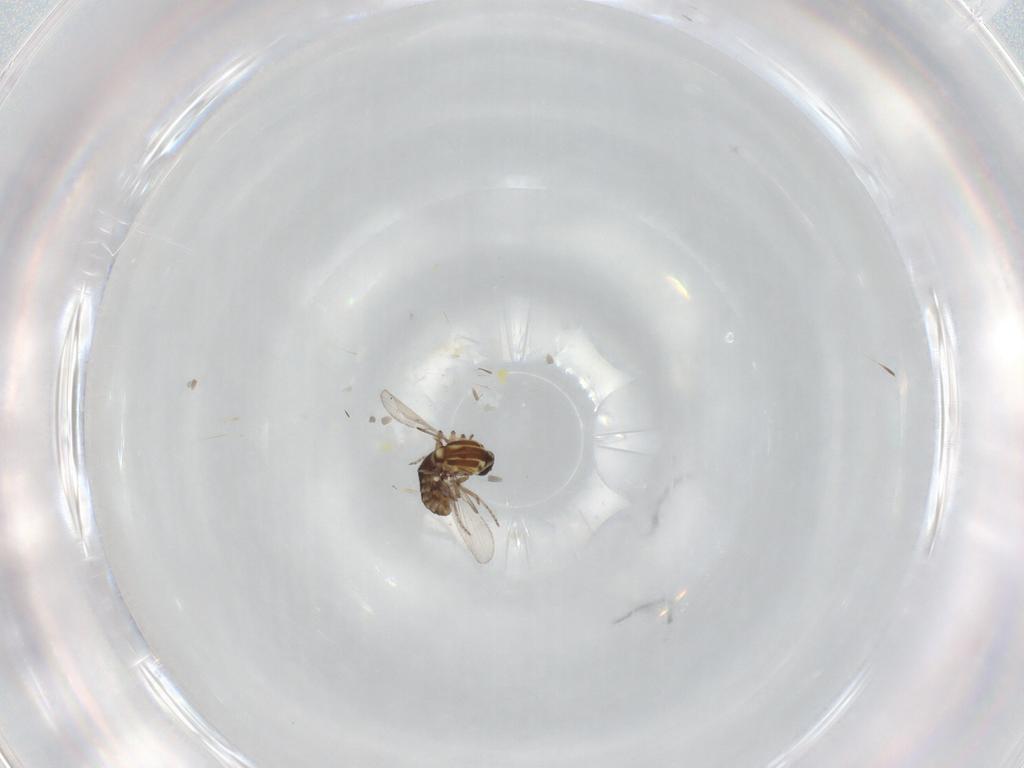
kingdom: Animalia
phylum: Arthropoda
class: Insecta
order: Diptera
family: Ceratopogonidae
